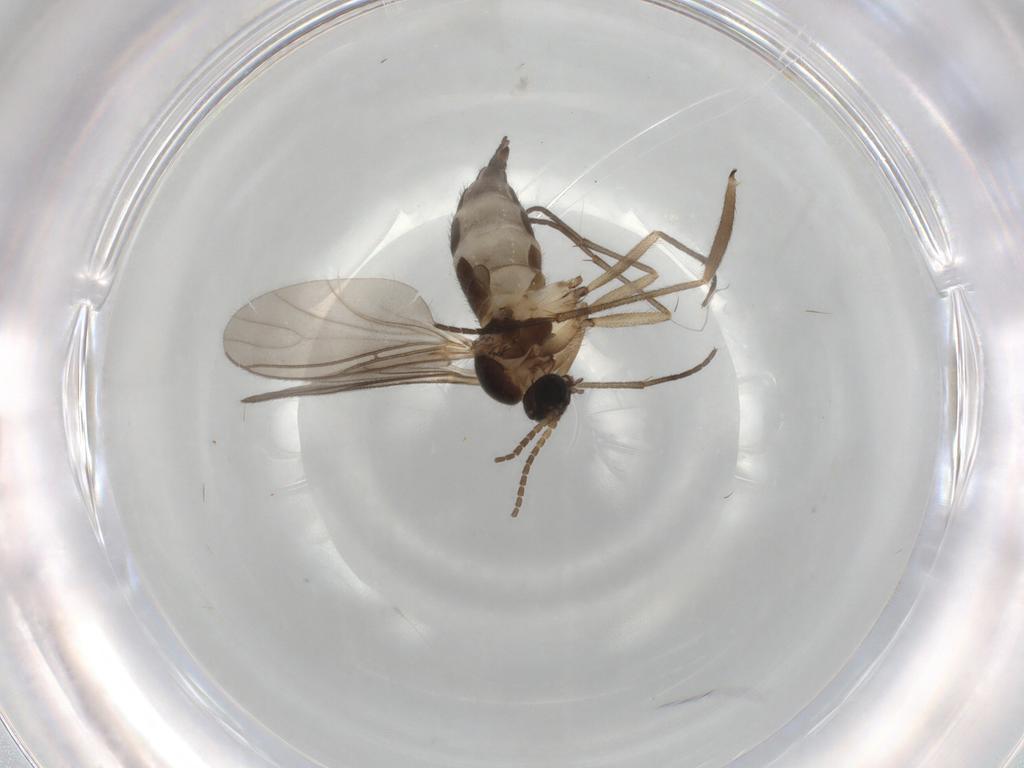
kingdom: Animalia
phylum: Arthropoda
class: Insecta
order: Diptera
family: Sciaridae
